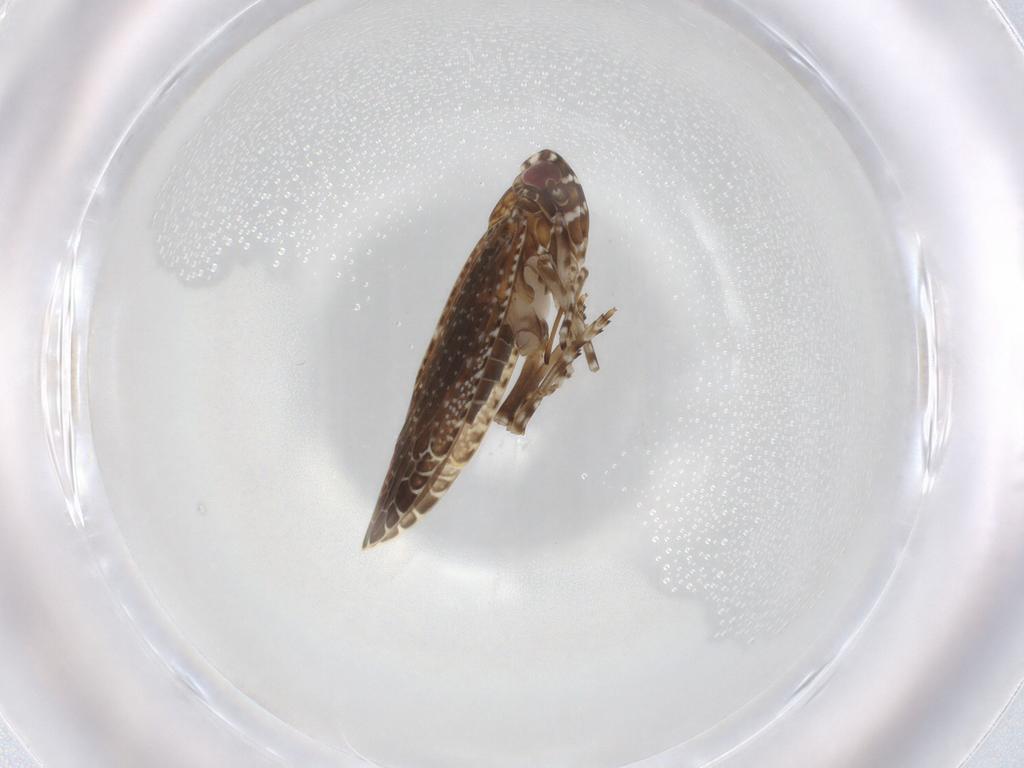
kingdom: Animalia
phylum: Arthropoda
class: Insecta
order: Hemiptera
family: Achilidae
